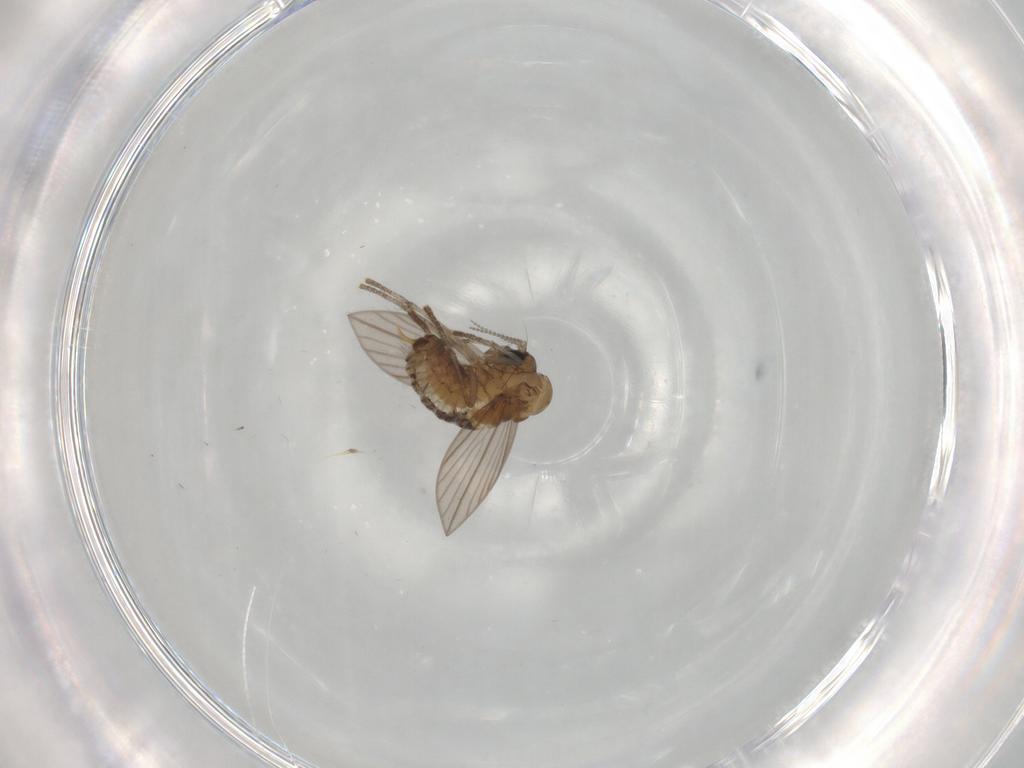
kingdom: Animalia
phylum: Arthropoda
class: Insecta
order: Diptera
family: Psychodidae
